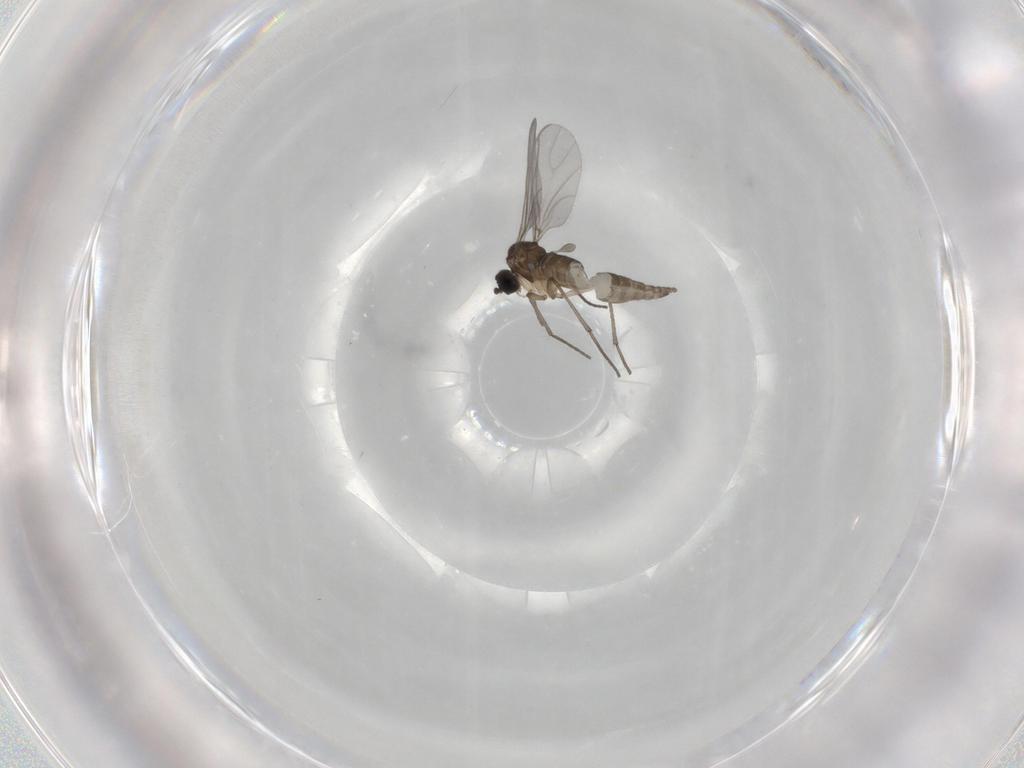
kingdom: Animalia
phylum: Arthropoda
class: Insecta
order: Diptera
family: Sciaridae
